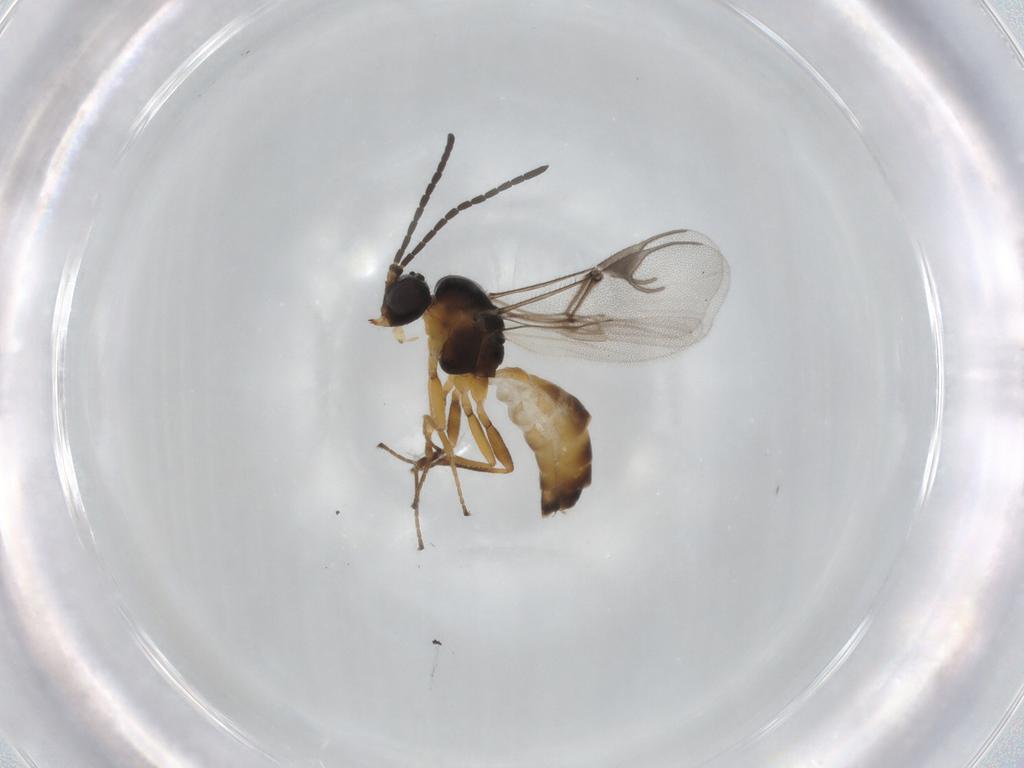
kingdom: Animalia
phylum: Arthropoda
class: Insecta
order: Hymenoptera
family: Braconidae
